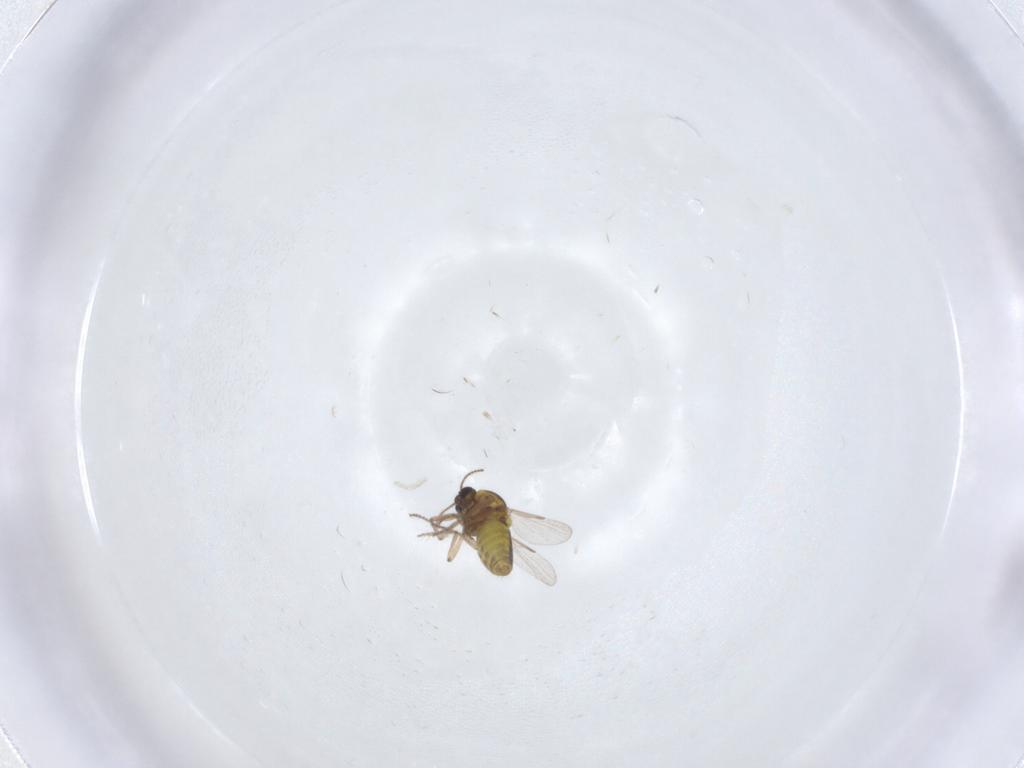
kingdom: Animalia
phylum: Arthropoda
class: Insecta
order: Diptera
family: Ceratopogonidae
